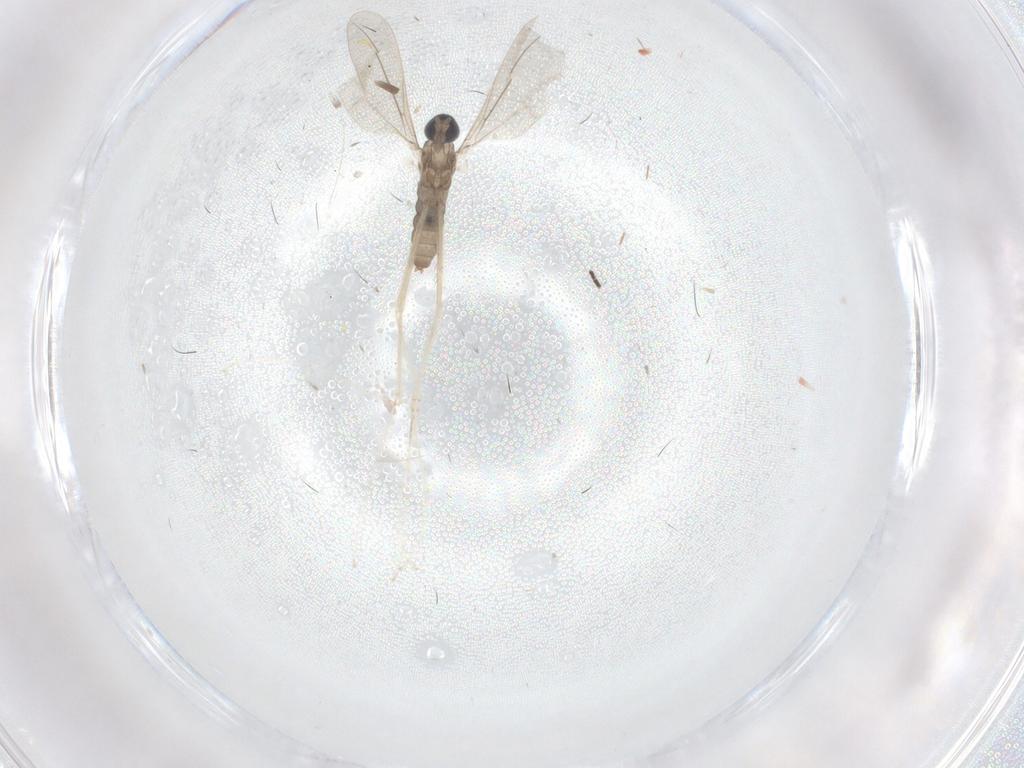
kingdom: Animalia
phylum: Arthropoda
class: Insecta
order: Diptera
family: Cecidomyiidae
